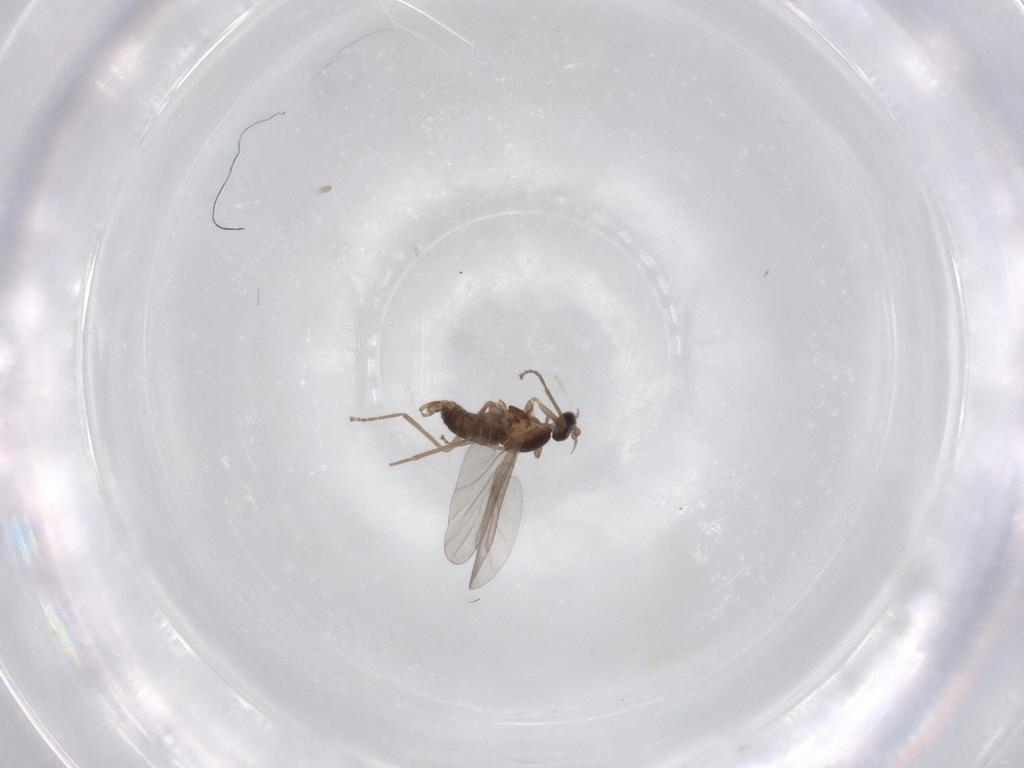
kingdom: Animalia
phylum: Arthropoda
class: Insecta
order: Diptera
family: Cecidomyiidae
